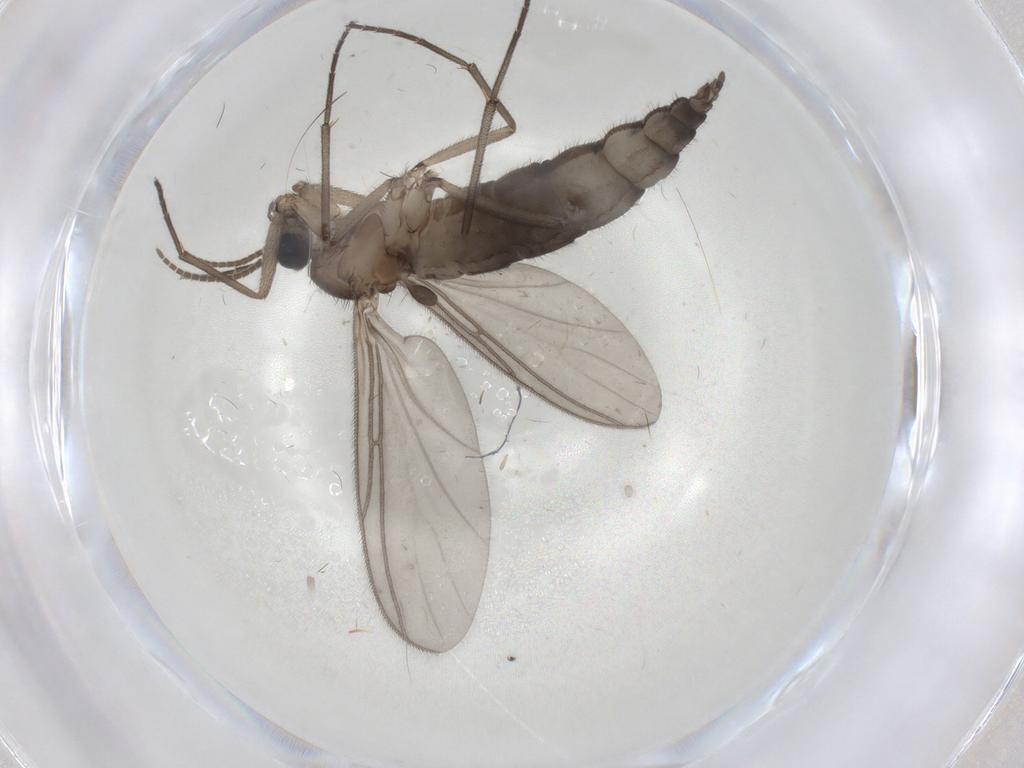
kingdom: Animalia
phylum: Arthropoda
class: Insecta
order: Diptera
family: Sciaridae
